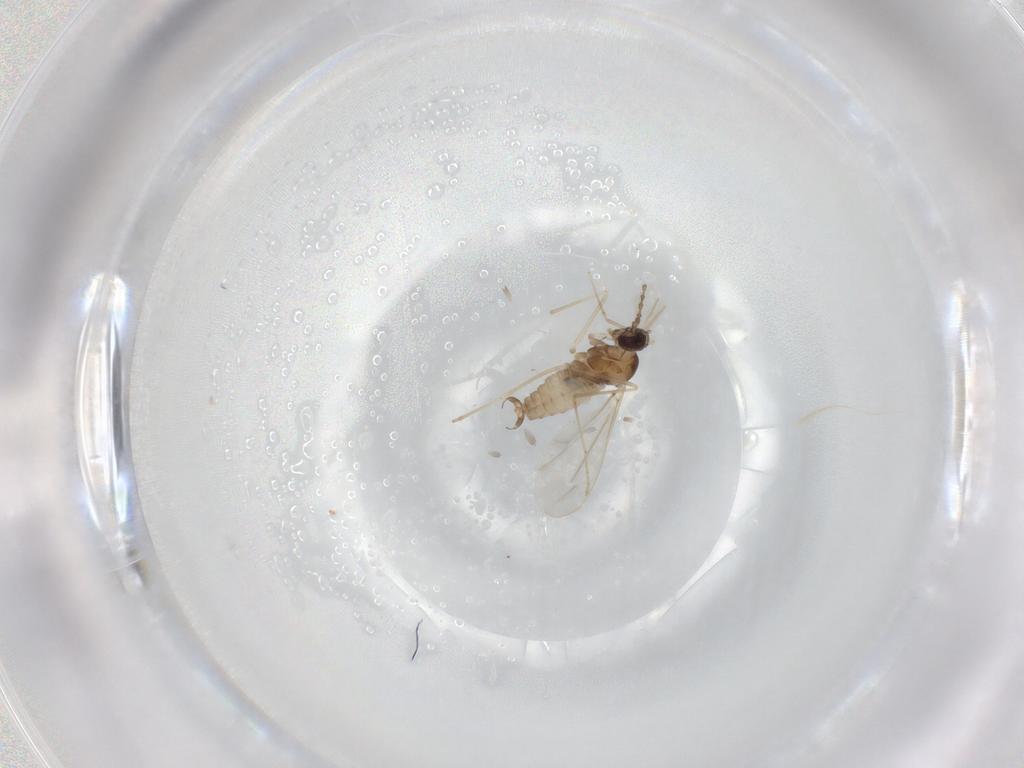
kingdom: Animalia
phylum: Arthropoda
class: Insecta
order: Diptera
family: Cecidomyiidae
